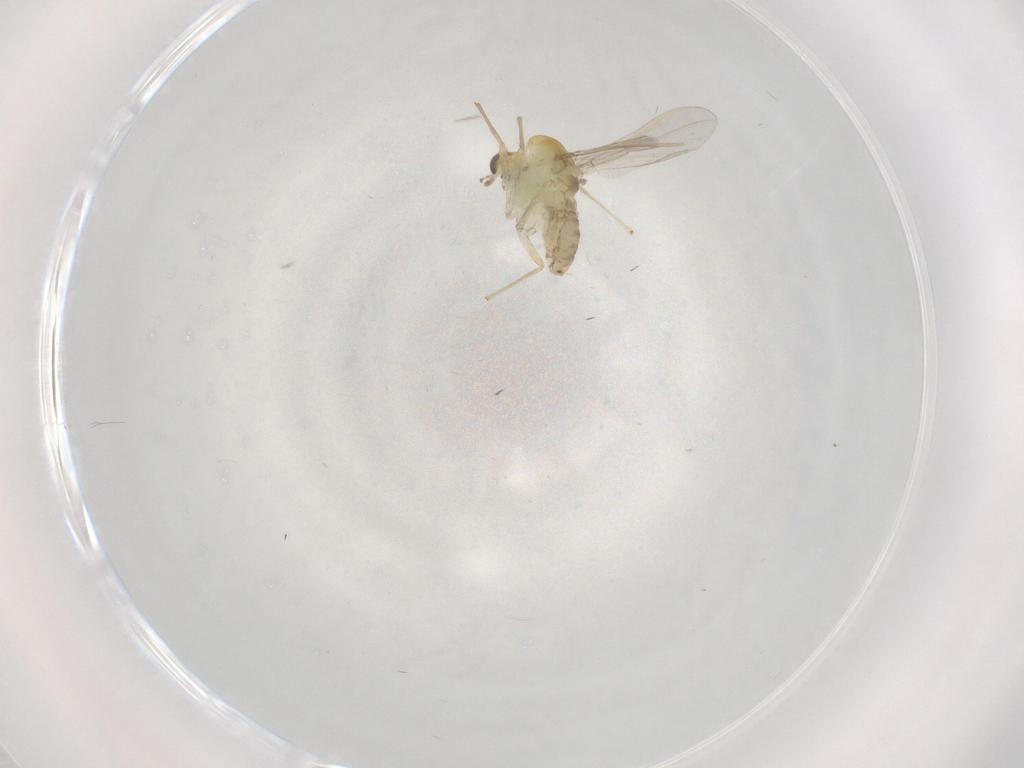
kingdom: Animalia
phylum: Arthropoda
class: Insecta
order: Diptera
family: Chironomidae
